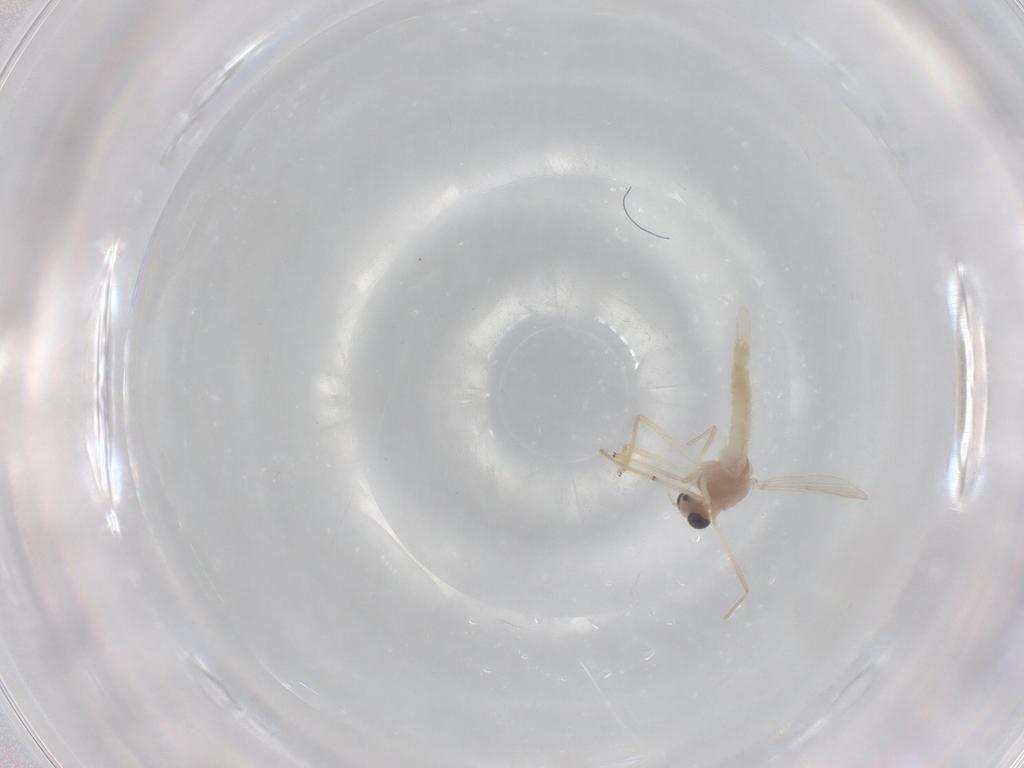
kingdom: Animalia
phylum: Arthropoda
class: Insecta
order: Diptera
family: Chironomidae
